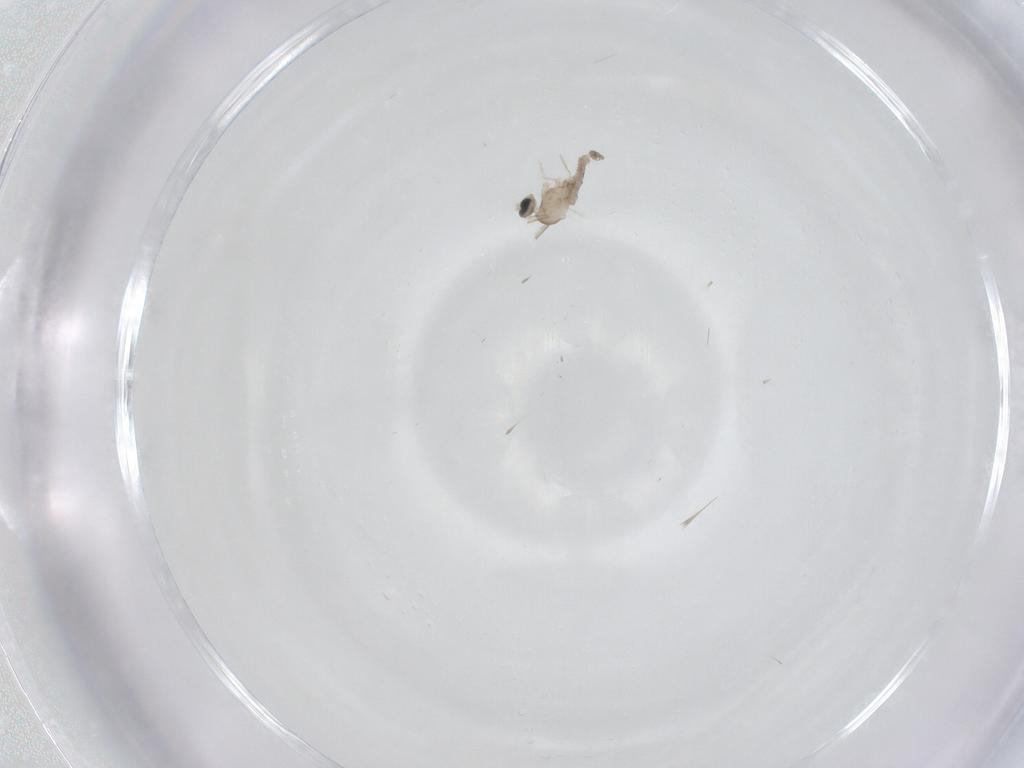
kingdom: Animalia
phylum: Arthropoda
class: Insecta
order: Diptera
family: Cecidomyiidae
